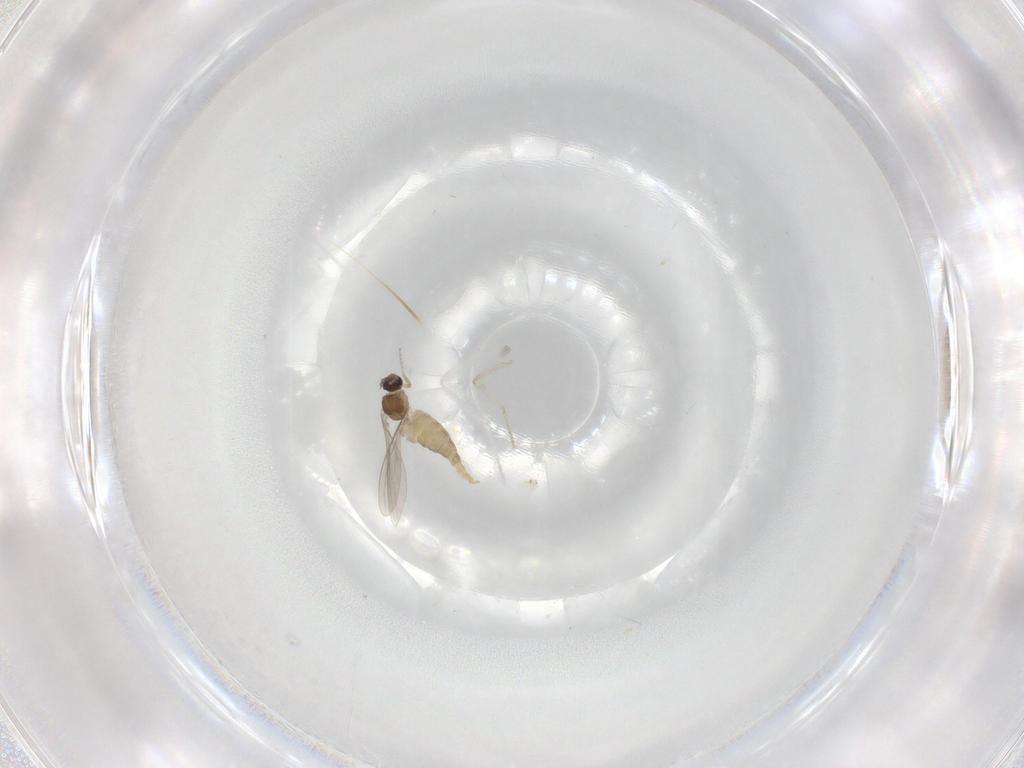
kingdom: Animalia
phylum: Arthropoda
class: Insecta
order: Diptera
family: Cecidomyiidae
